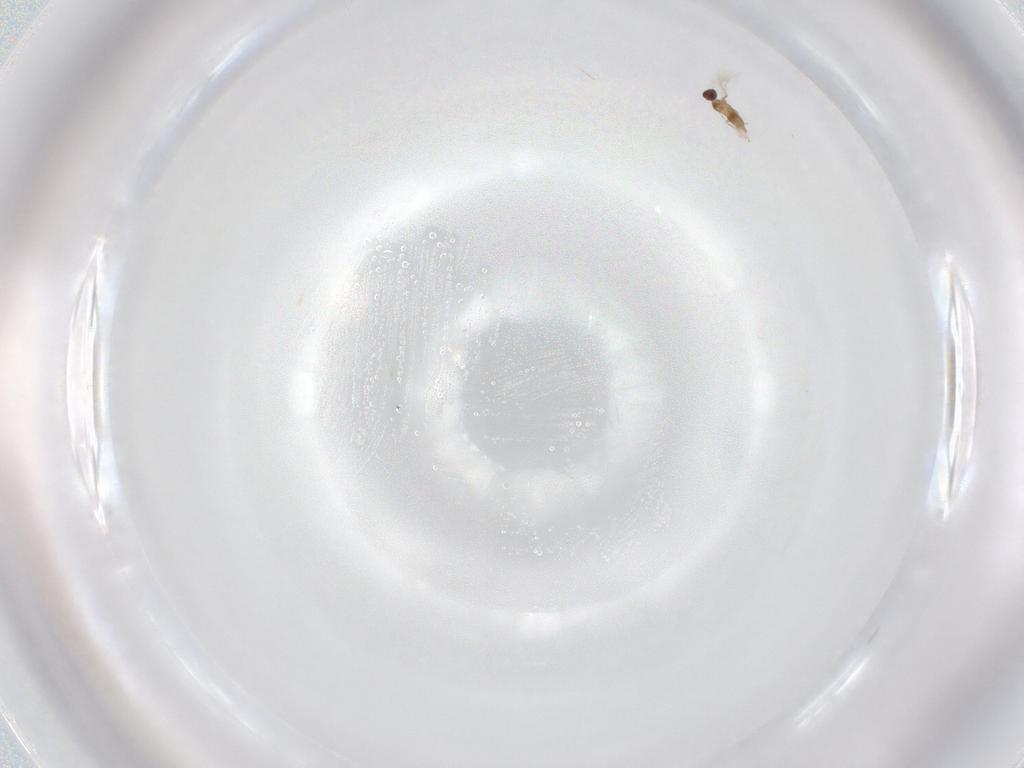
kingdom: Animalia
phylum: Arthropoda
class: Insecta
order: Hymenoptera
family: Mymaridae
